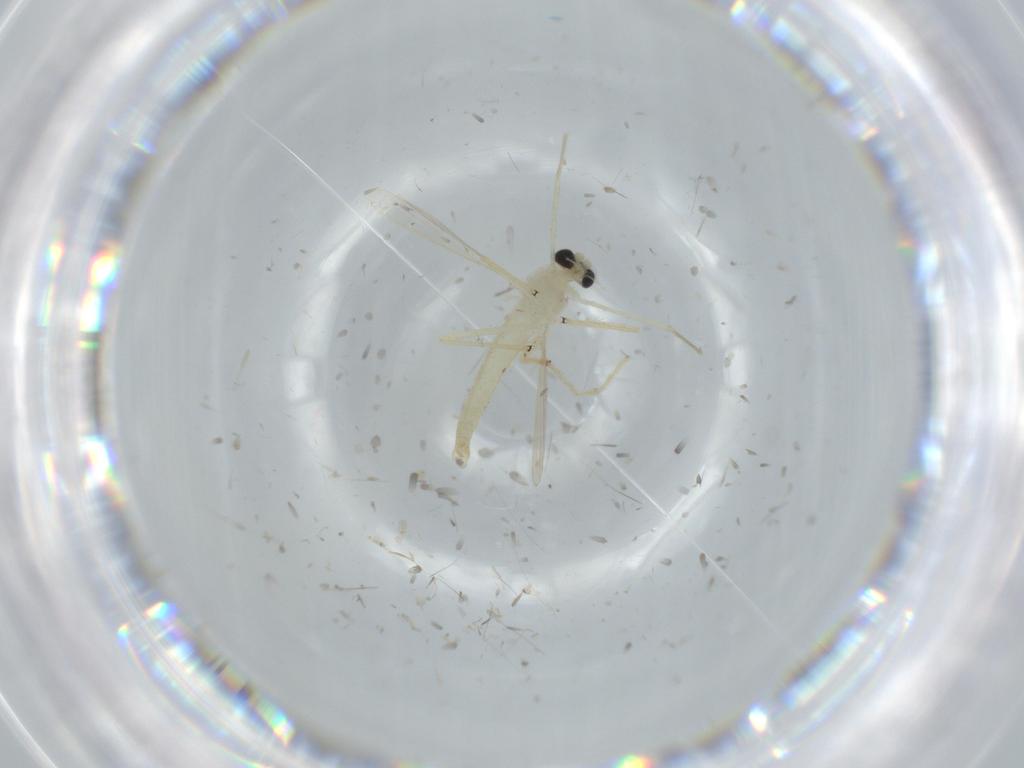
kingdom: Animalia
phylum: Arthropoda
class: Insecta
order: Diptera
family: Chironomidae
